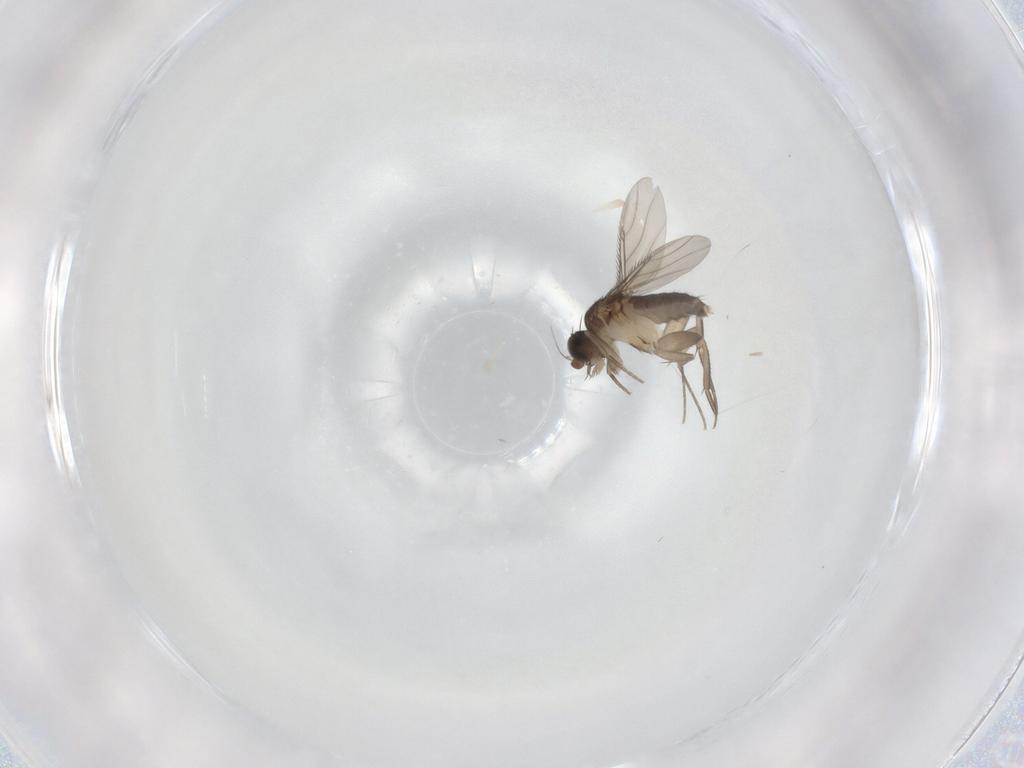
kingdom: Animalia
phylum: Arthropoda
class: Insecta
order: Diptera
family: Phoridae
